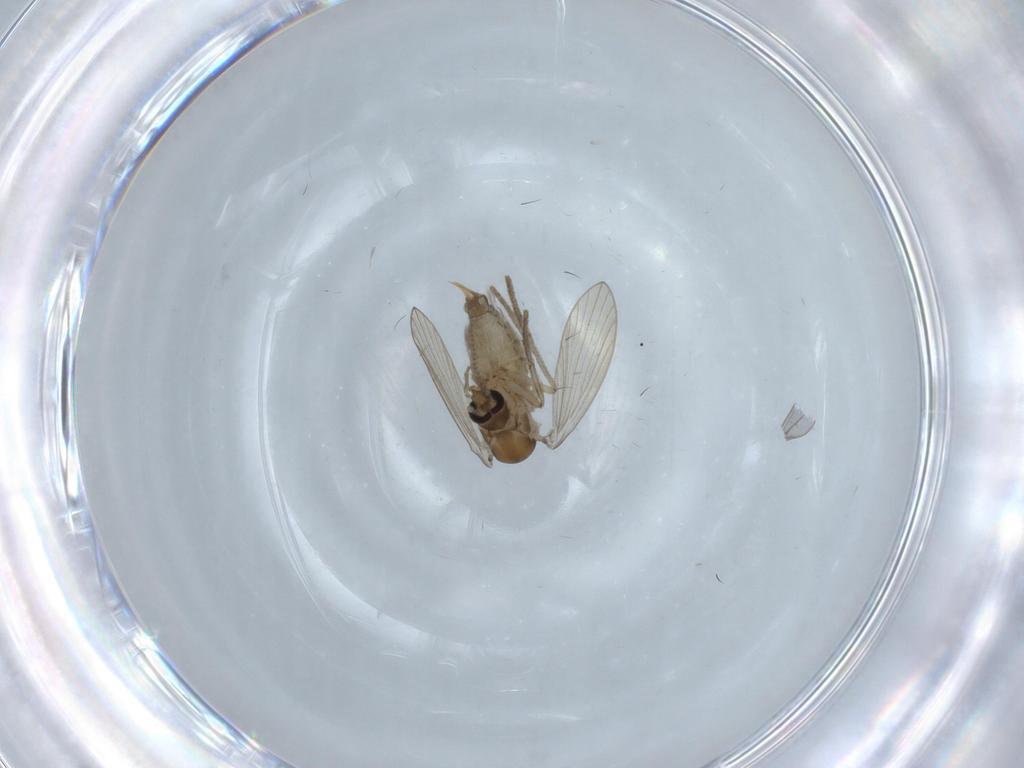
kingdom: Animalia
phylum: Arthropoda
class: Insecta
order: Diptera
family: Psychodidae
